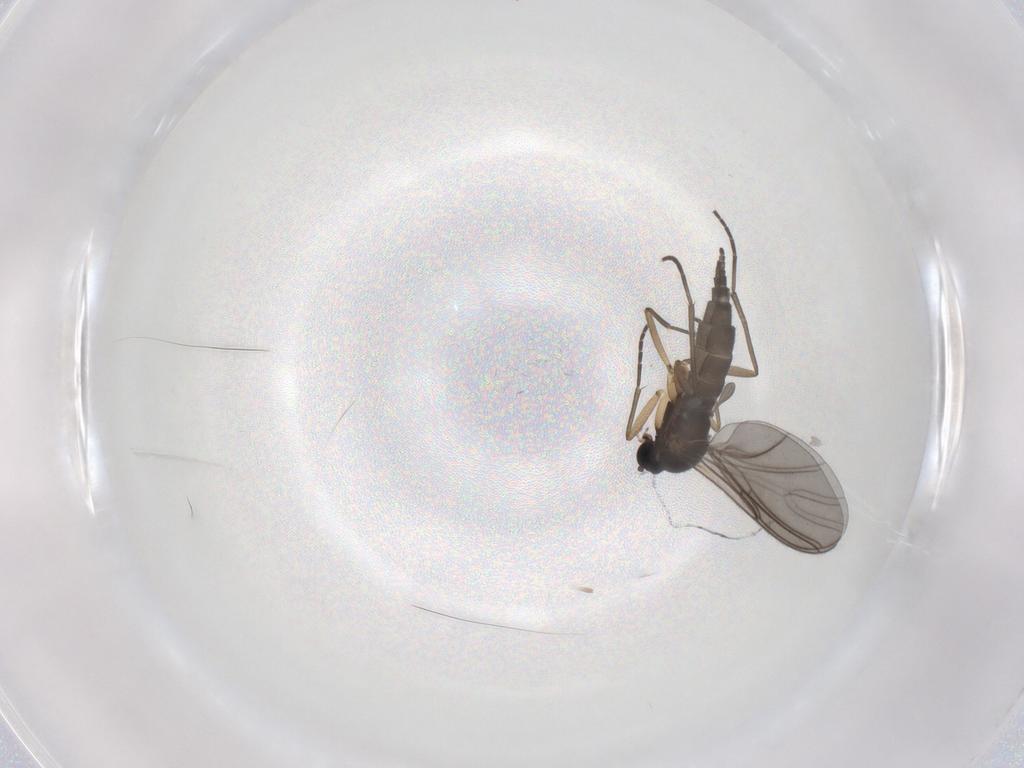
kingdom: Animalia
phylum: Arthropoda
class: Insecta
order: Diptera
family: Sciaridae
